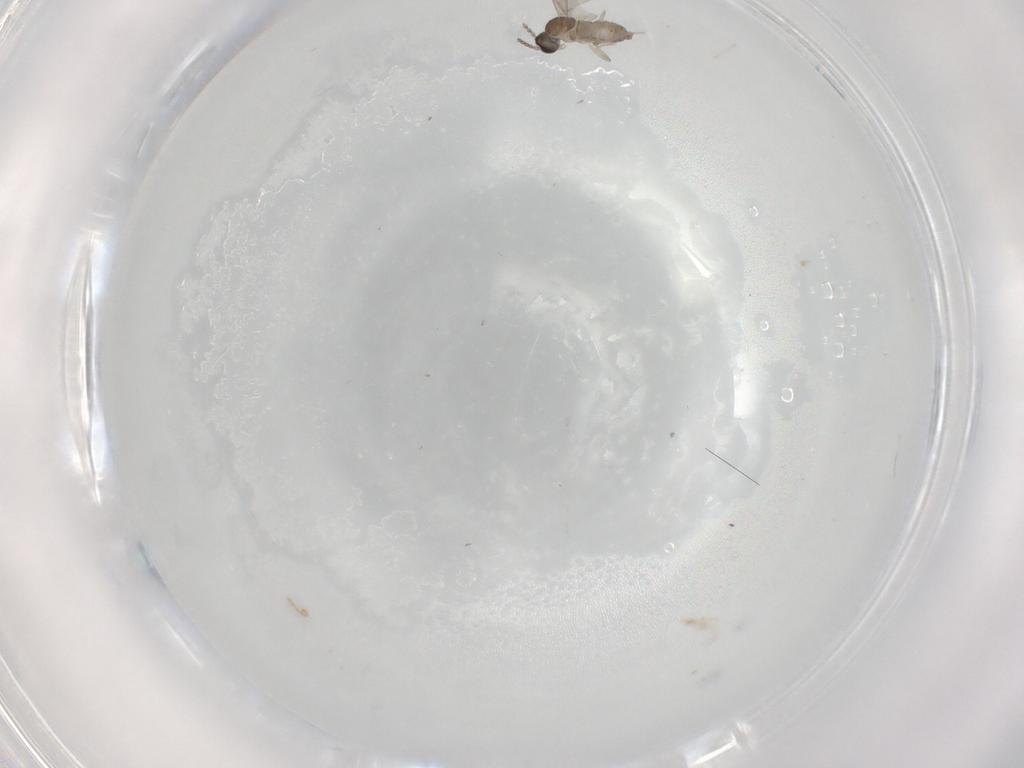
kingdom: Animalia
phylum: Arthropoda
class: Insecta
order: Diptera
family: Cecidomyiidae
